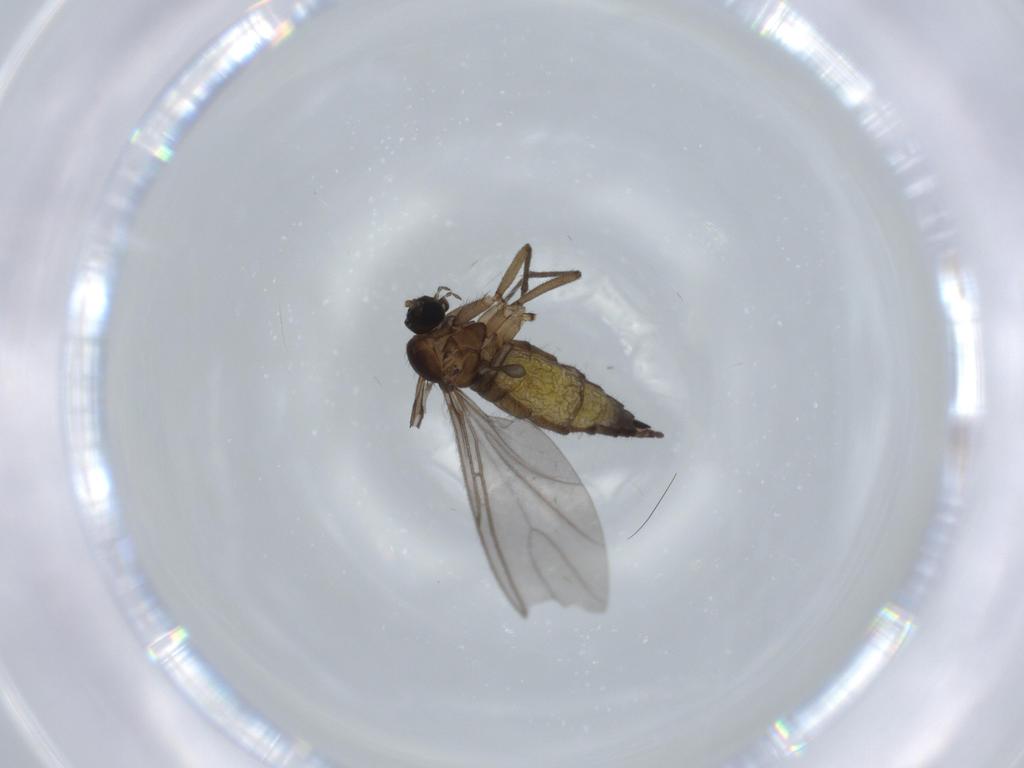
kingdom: Animalia
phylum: Arthropoda
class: Insecta
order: Diptera
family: Sciaridae
